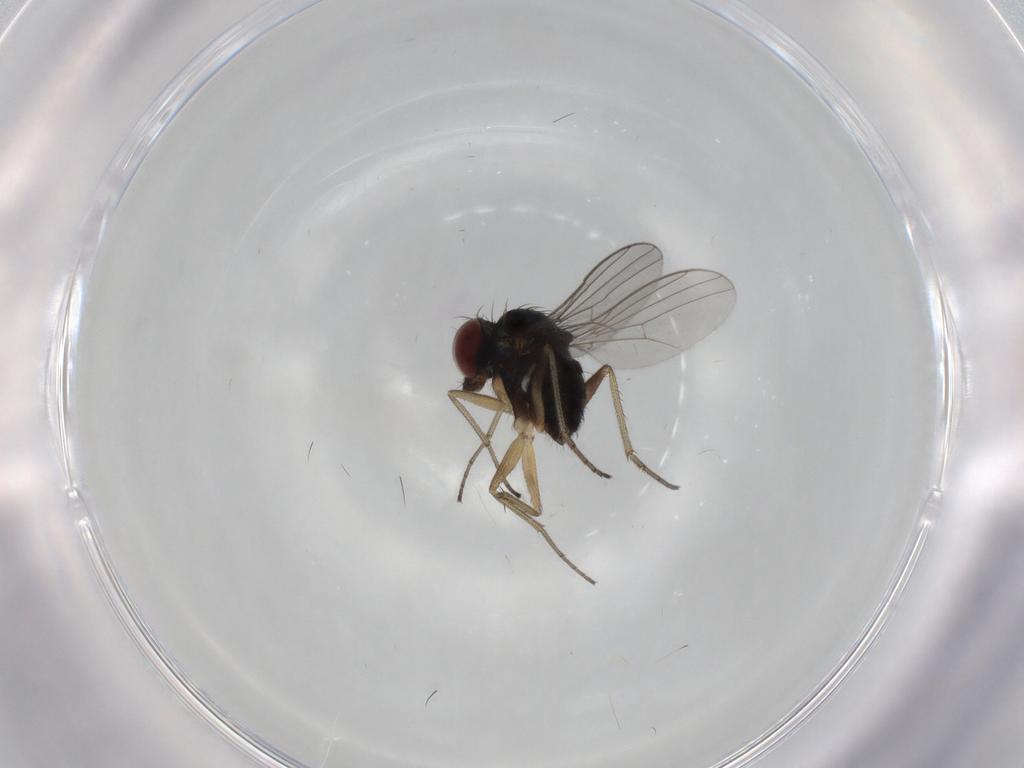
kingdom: Animalia
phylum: Arthropoda
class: Insecta
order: Diptera
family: Dolichopodidae
